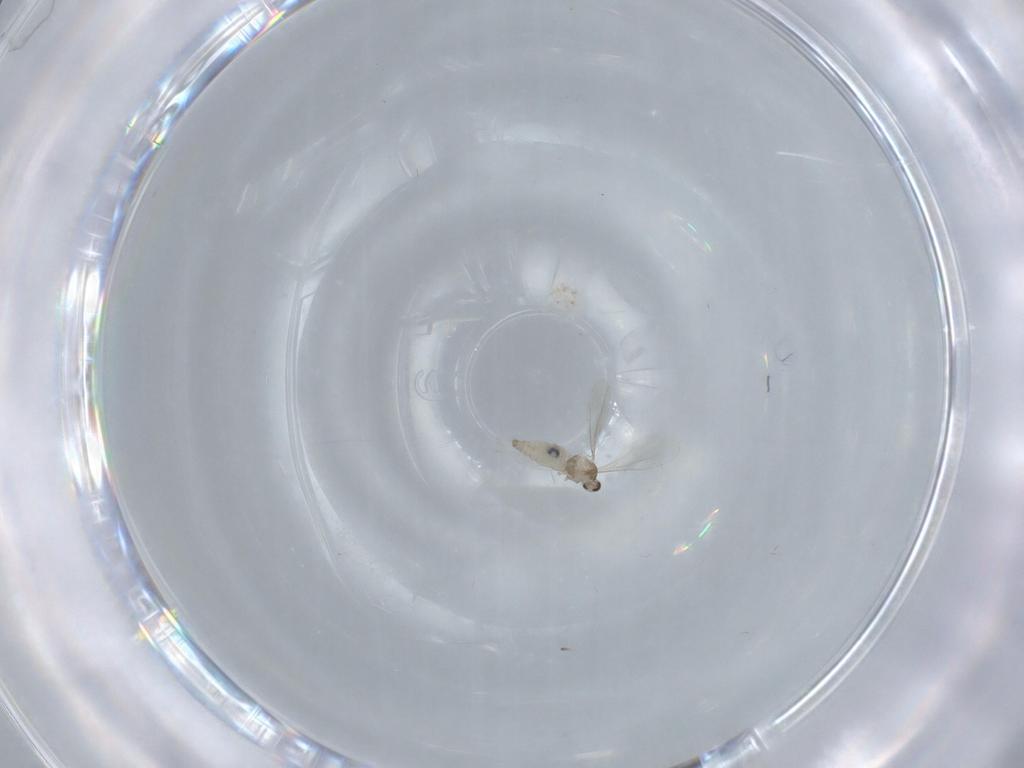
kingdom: Animalia
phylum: Arthropoda
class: Insecta
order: Diptera
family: Cecidomyiidae
